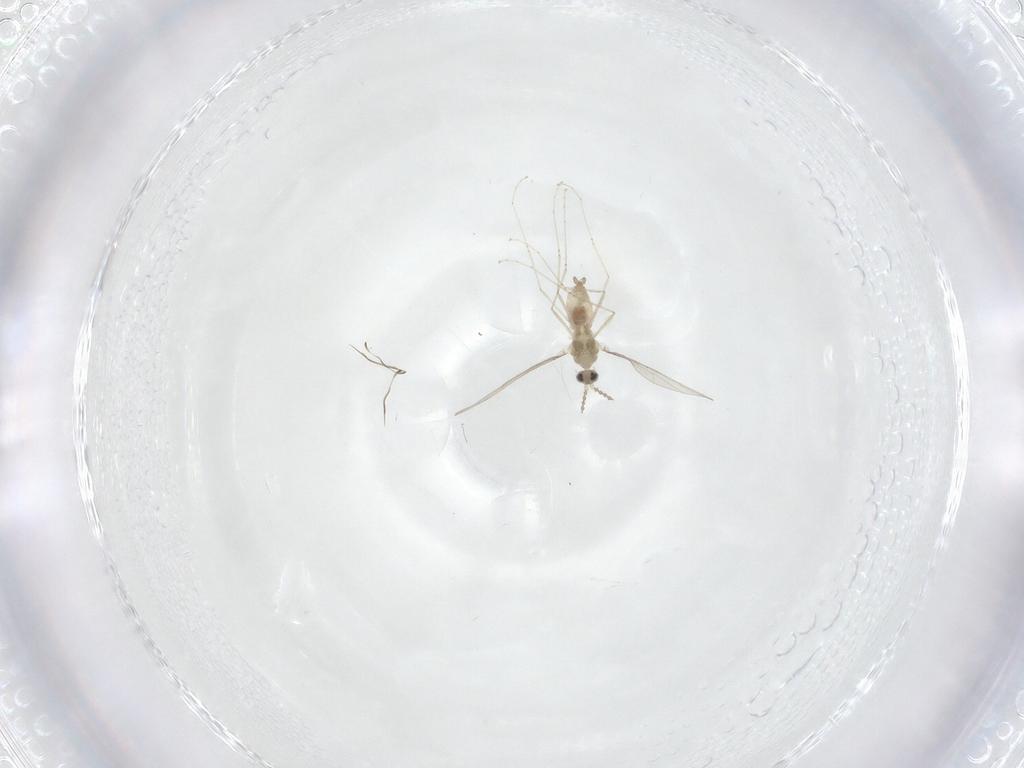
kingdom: Animalia
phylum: Arthropoda
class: Insecta
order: Diptera
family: Cecidomyiidae
